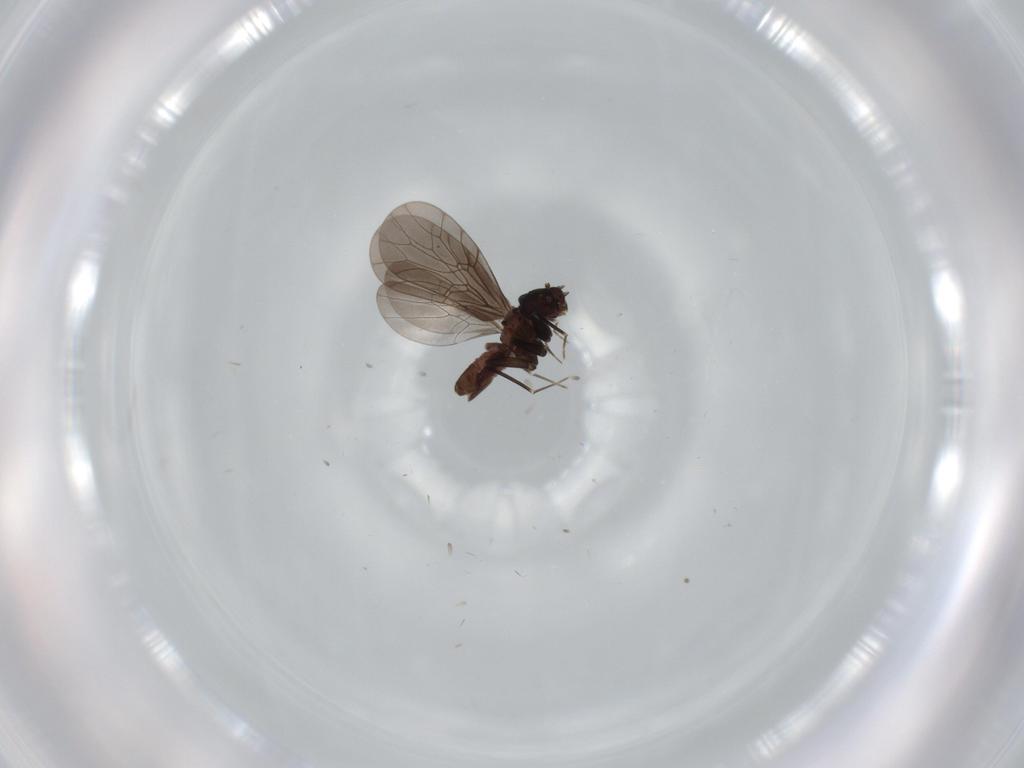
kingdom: Animalia
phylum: Arthropoda
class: Insecta
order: Psocodea
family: Lepidopsocidae
